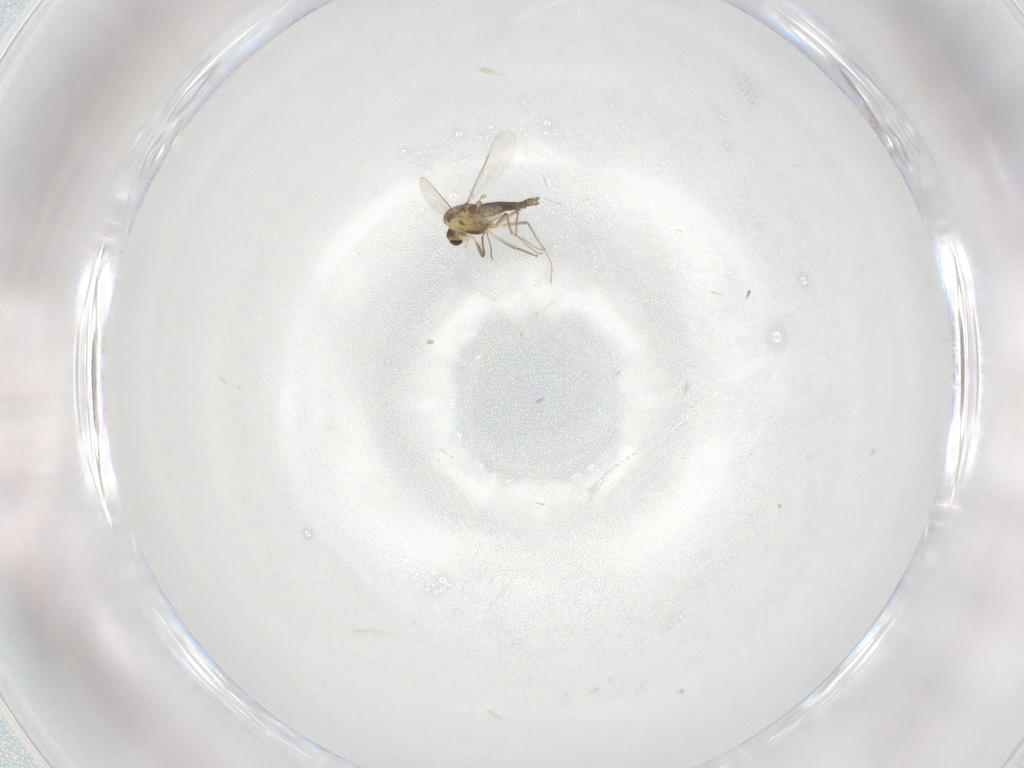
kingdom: Animalia
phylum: Arthropoda
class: Insecta
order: Diptera
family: Chironomidae
